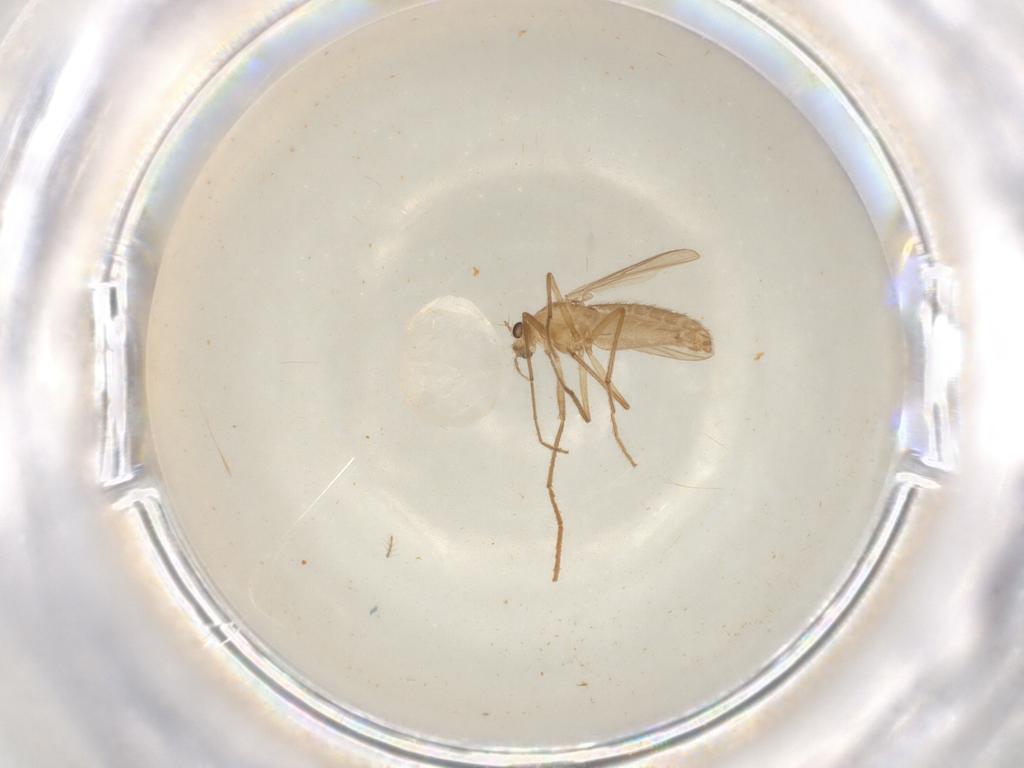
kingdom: Animalia
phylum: Arthropoda
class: Insecta
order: Diptera
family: Chironomidae
